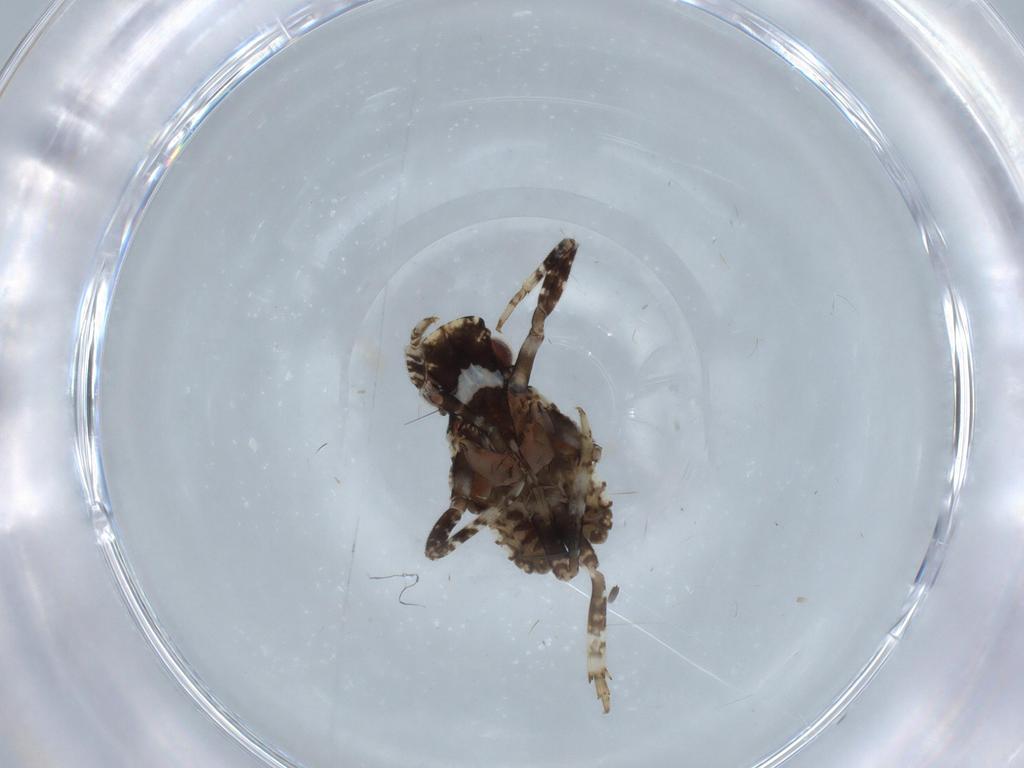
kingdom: Animalia
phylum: Arthropoda
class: Insecta
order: Hemiptera
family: Fulgoridae
